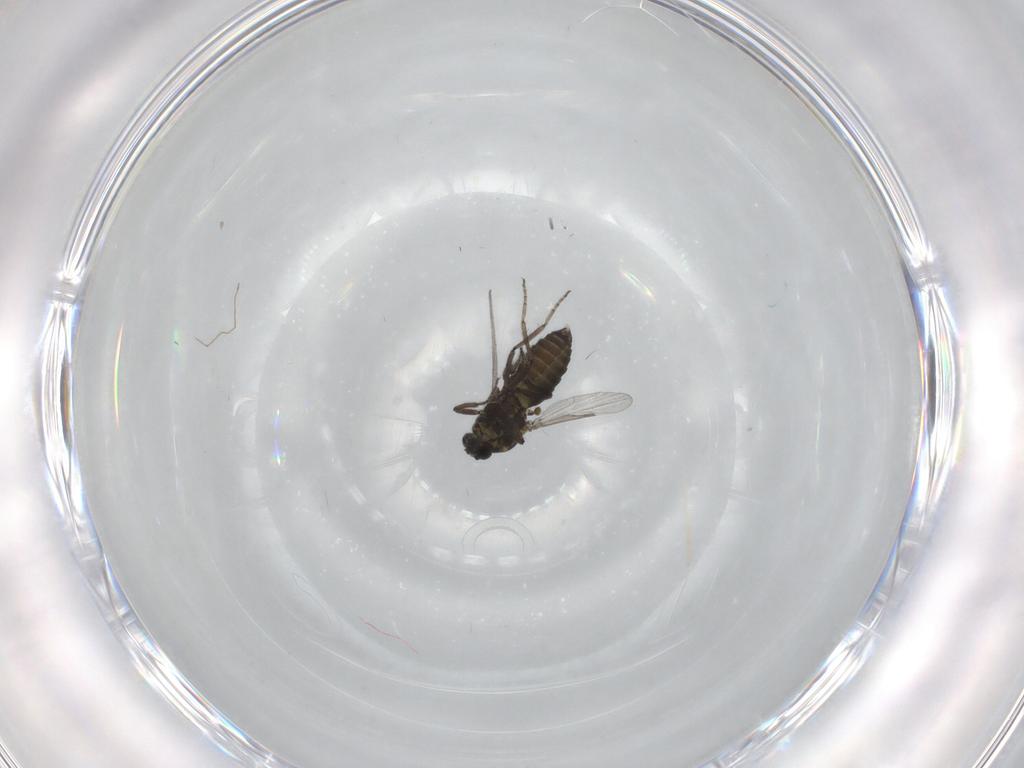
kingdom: Animalia
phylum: Arthropoda
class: Insecta
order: Diptera
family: Ceratopogonidae
